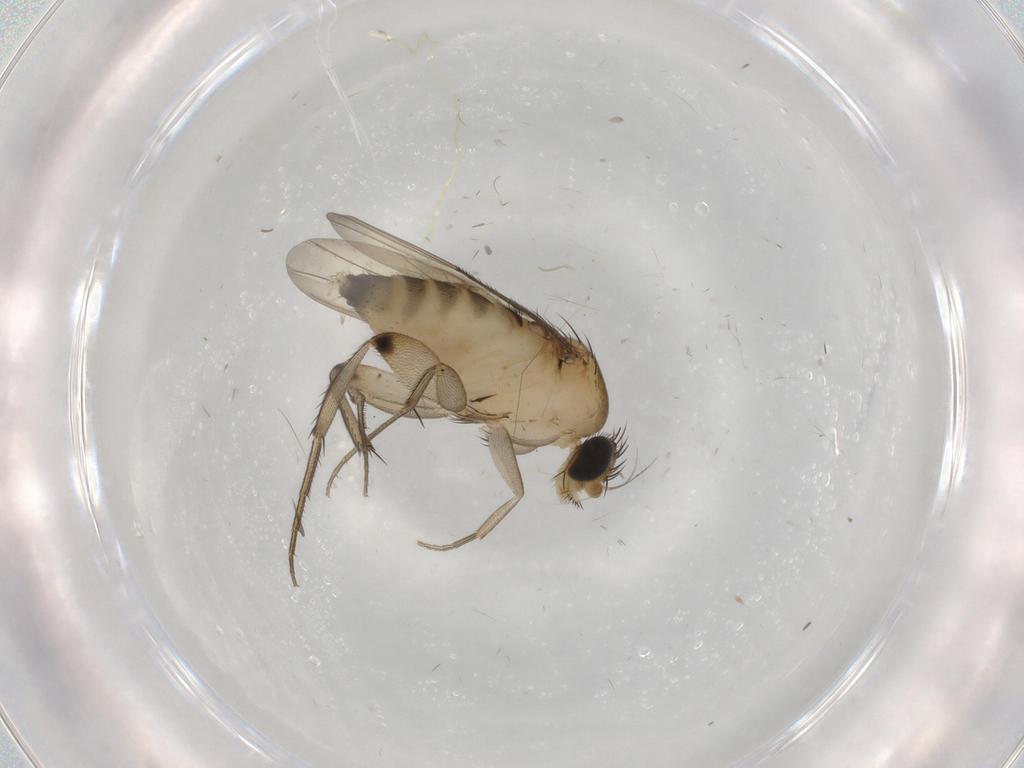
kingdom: Animalia
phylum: Arthropoda
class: Insecta
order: Diptera
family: Phoridae
